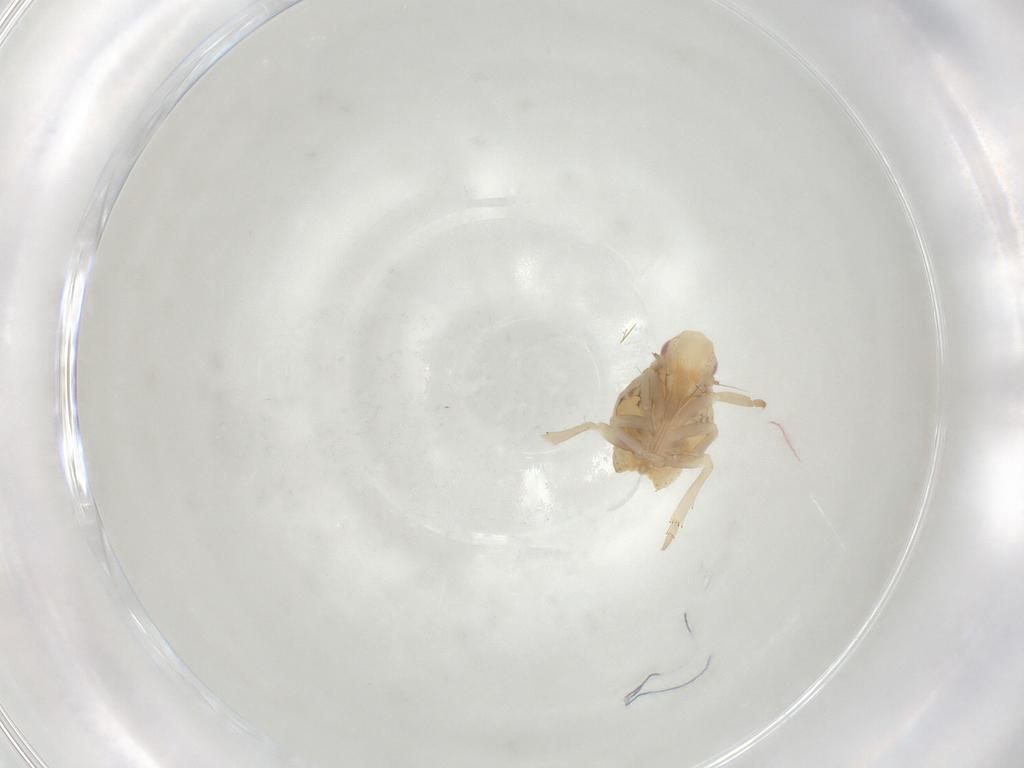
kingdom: Animalia
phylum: Arthropoda
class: Insecta
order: Hemiptera
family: Flatidae
